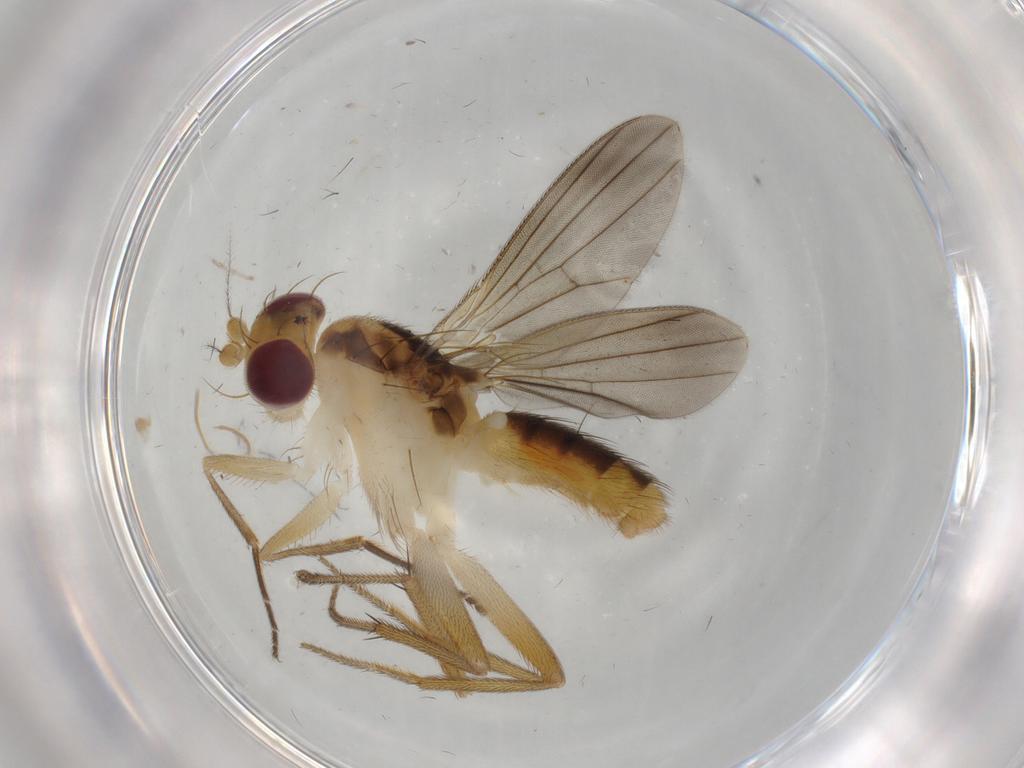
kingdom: Animalia
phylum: Arthropoda
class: Insecta
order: Diptera
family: Clusiidae
